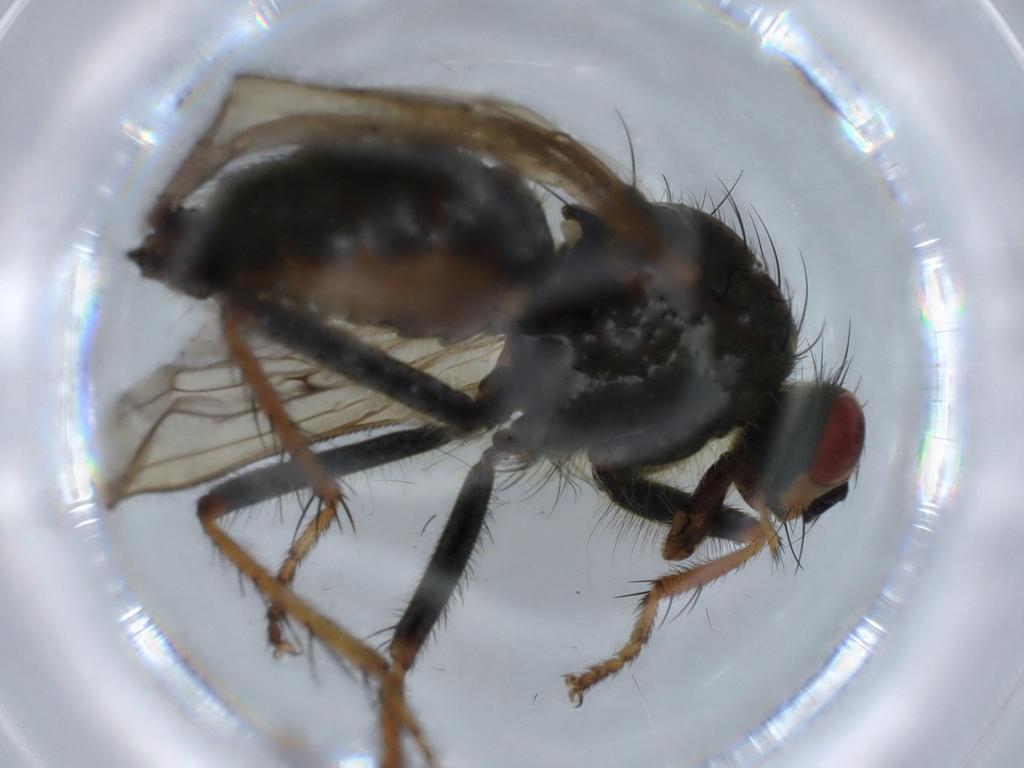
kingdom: Animalia
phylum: Arthropoda
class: Insecta
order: Diptera
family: Scathophagidae
